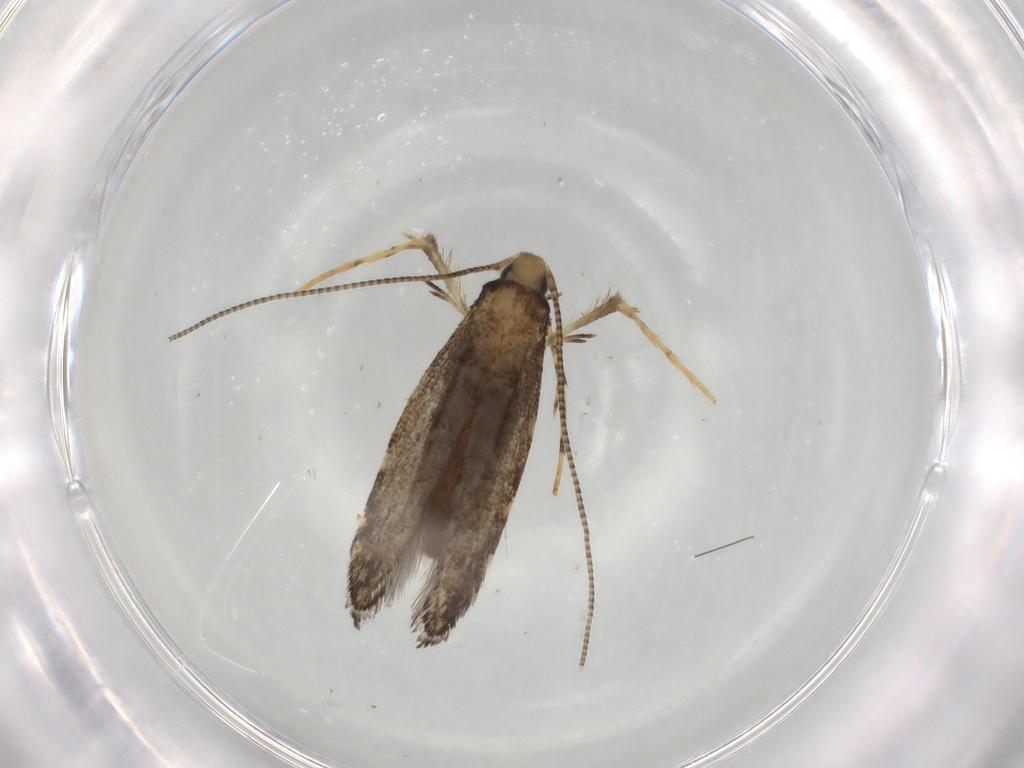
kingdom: Animalia
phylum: Arthropoda
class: Insecta
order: Lepidoptera
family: Gracillariidae
